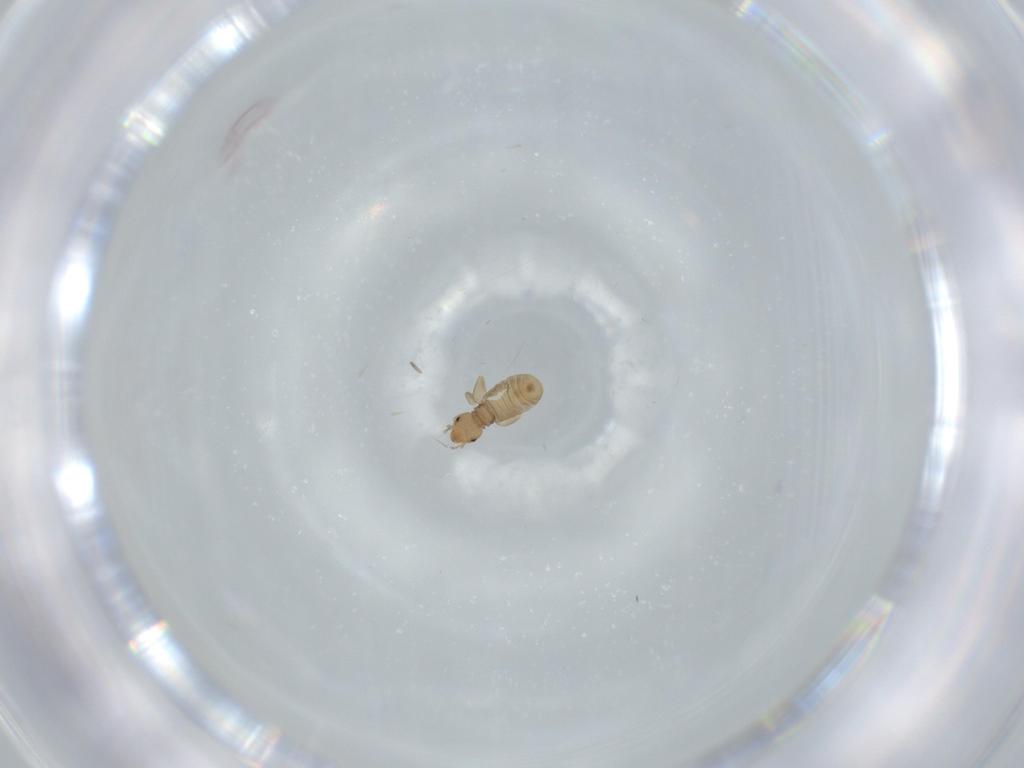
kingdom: Animalia
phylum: Arthropoda
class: Insecta
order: Psocodea
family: Liposcelididae
